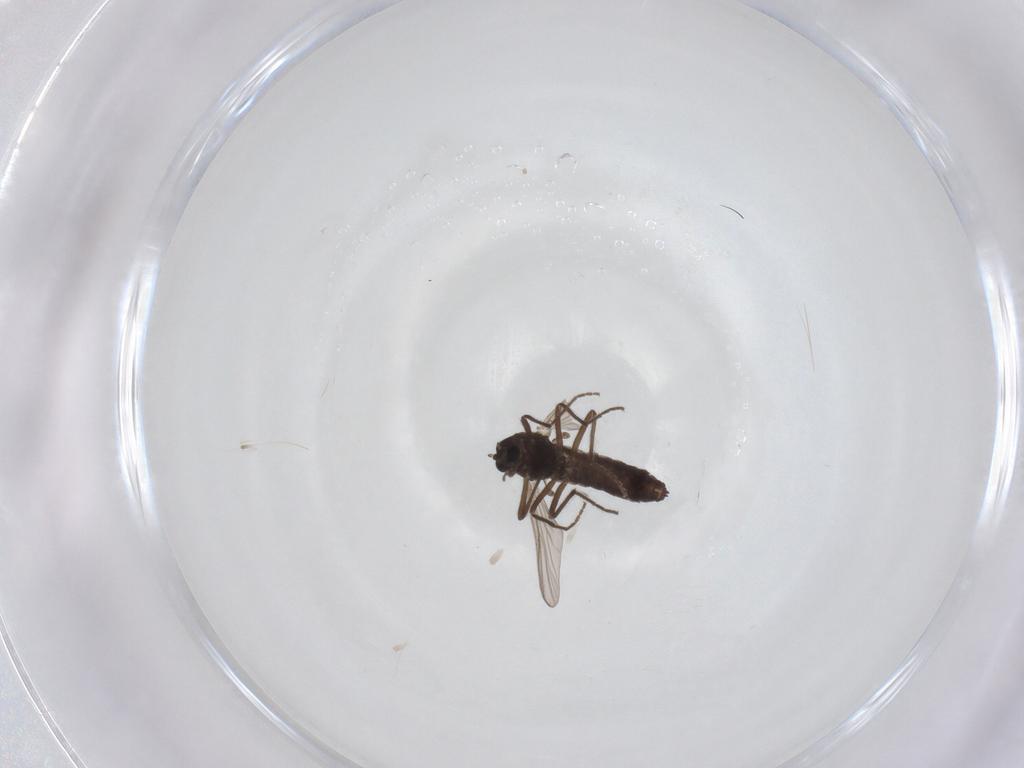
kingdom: Animalia
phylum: Arthropoda
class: Insecta
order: Diptera
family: Chironomidae
